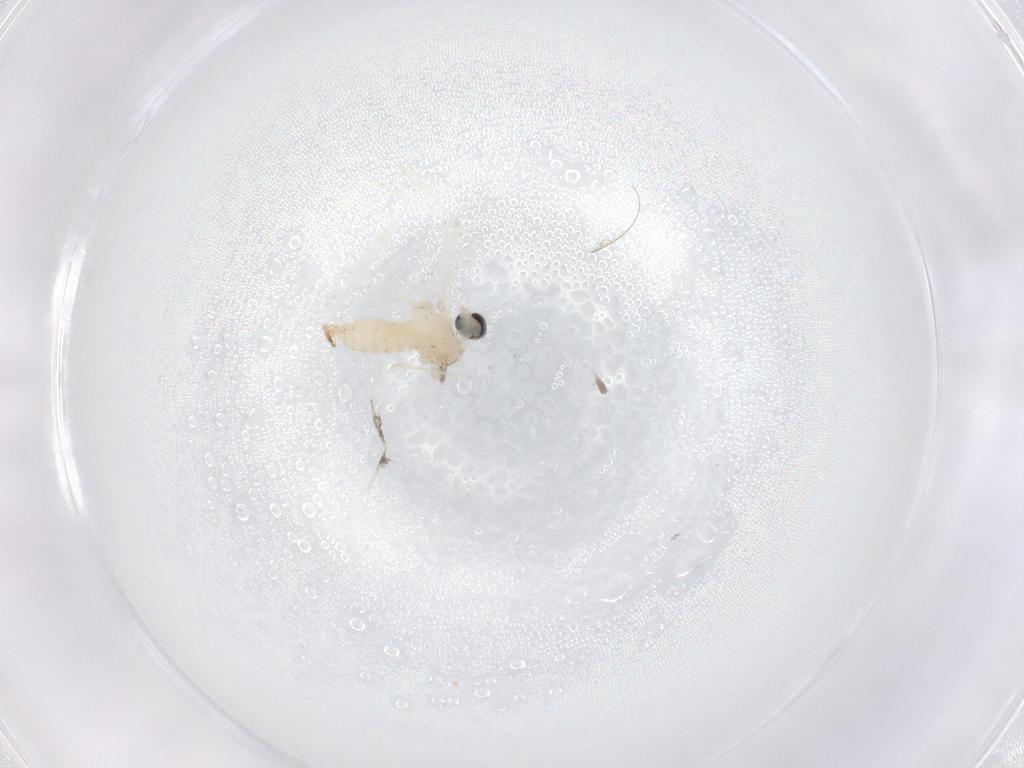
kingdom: Animalia
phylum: Arthropoda
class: Insecta
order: Diptera
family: Cecidomyiidae
